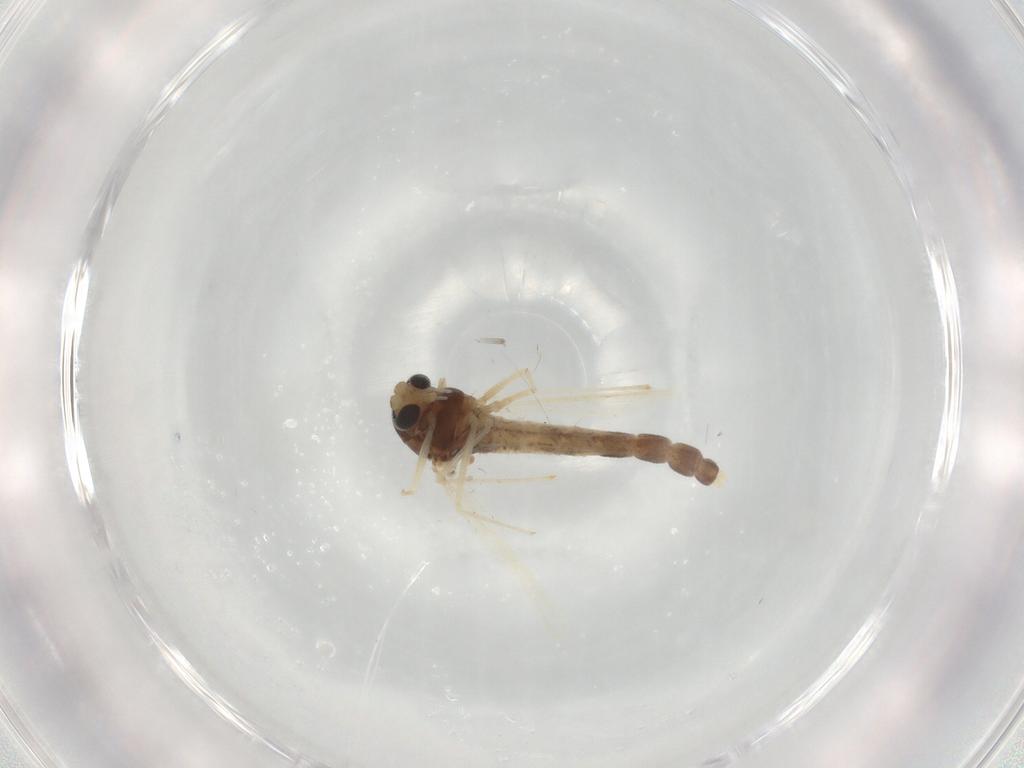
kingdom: Animalia
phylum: Arthropoda
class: Insecta
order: Diptera
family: Chironomidae
